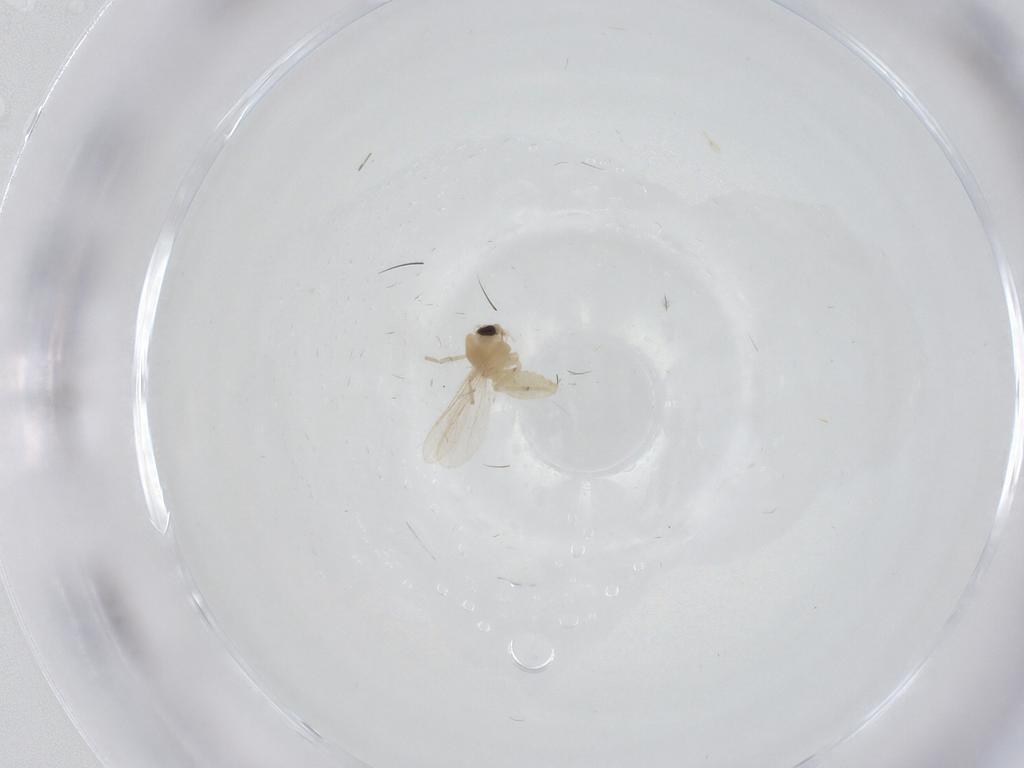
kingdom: Animalia
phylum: Arthropoda
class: Insecta
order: Diptera
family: Chironomidae
